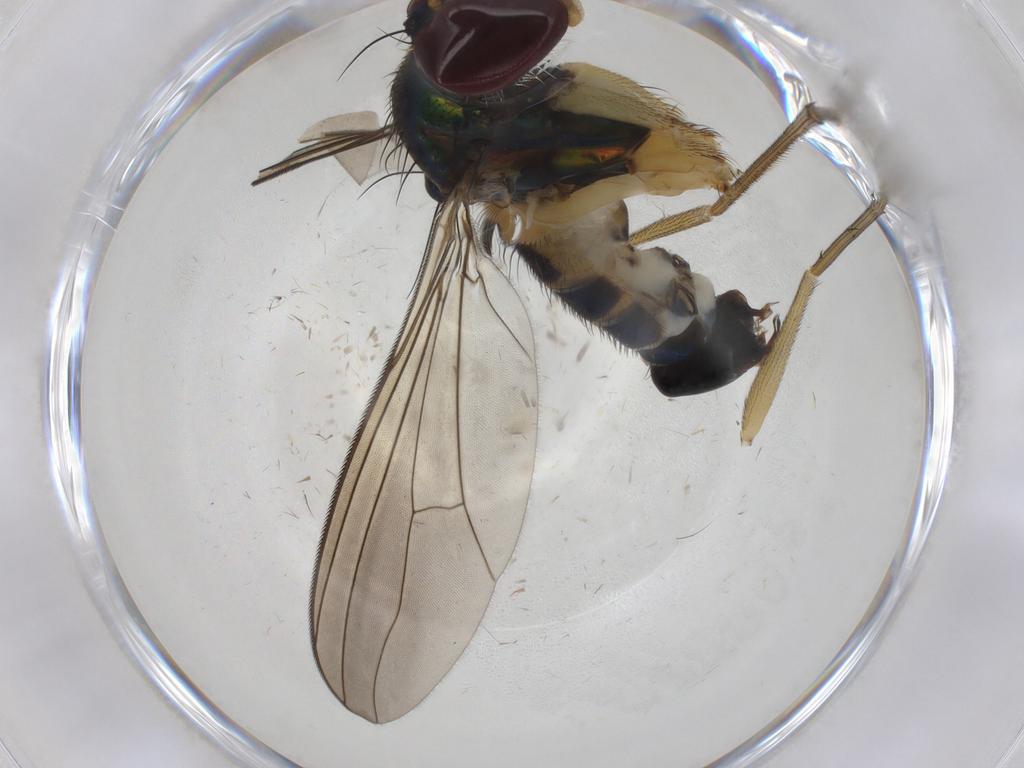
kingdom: Animalia
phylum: Arthropoda
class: Insecta
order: Diptera
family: Dolichopodidae
